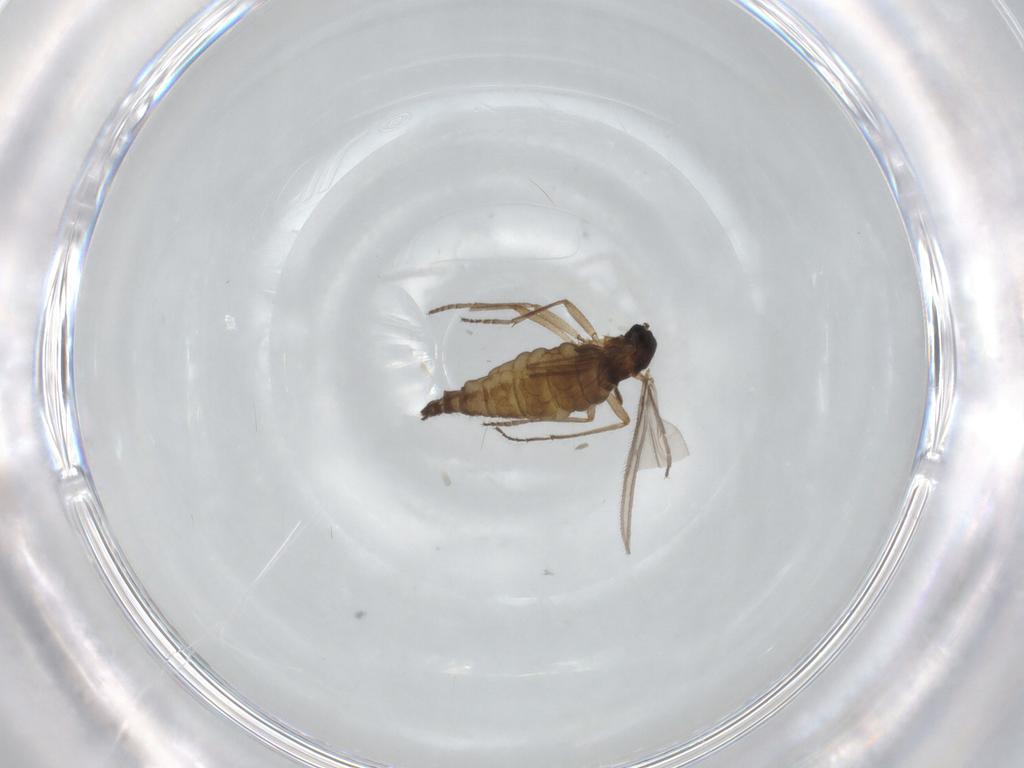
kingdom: Animalia
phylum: Arthropoda
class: Insecta
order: Diptera
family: Sciaridae
